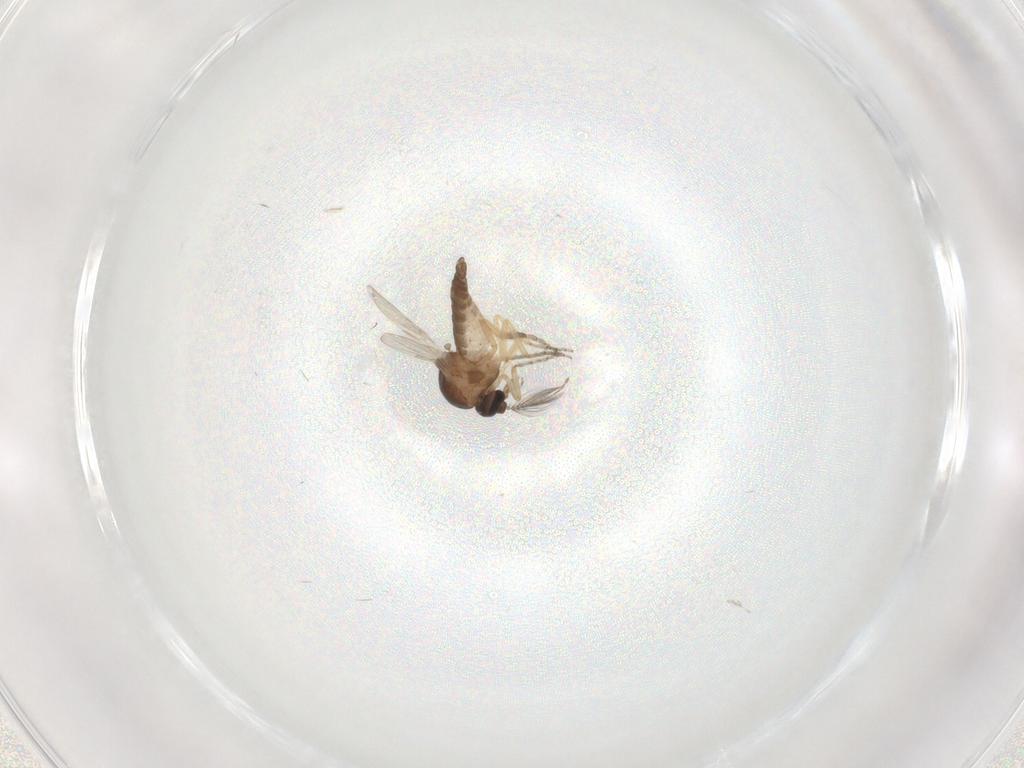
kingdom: Animalia
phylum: Arthropoda
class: Insecta
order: Diptera
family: Ceratopogonidae
